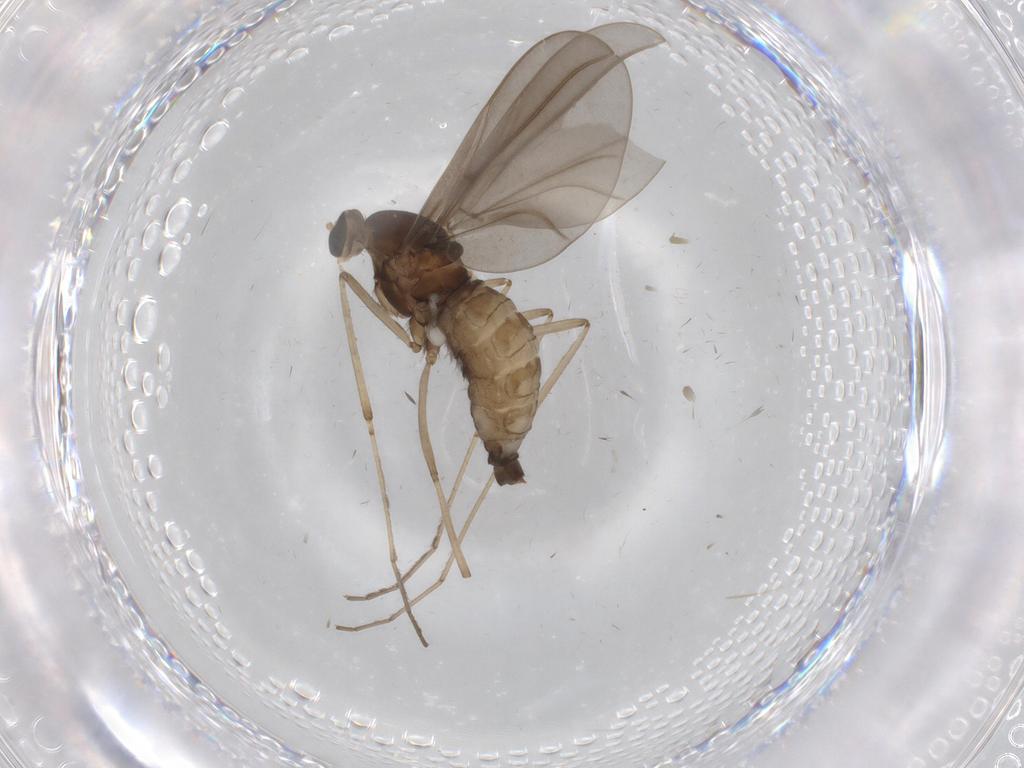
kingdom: Animalia
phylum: Arthropoda
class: Insecta
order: Diptera
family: Cecidomyiidae
